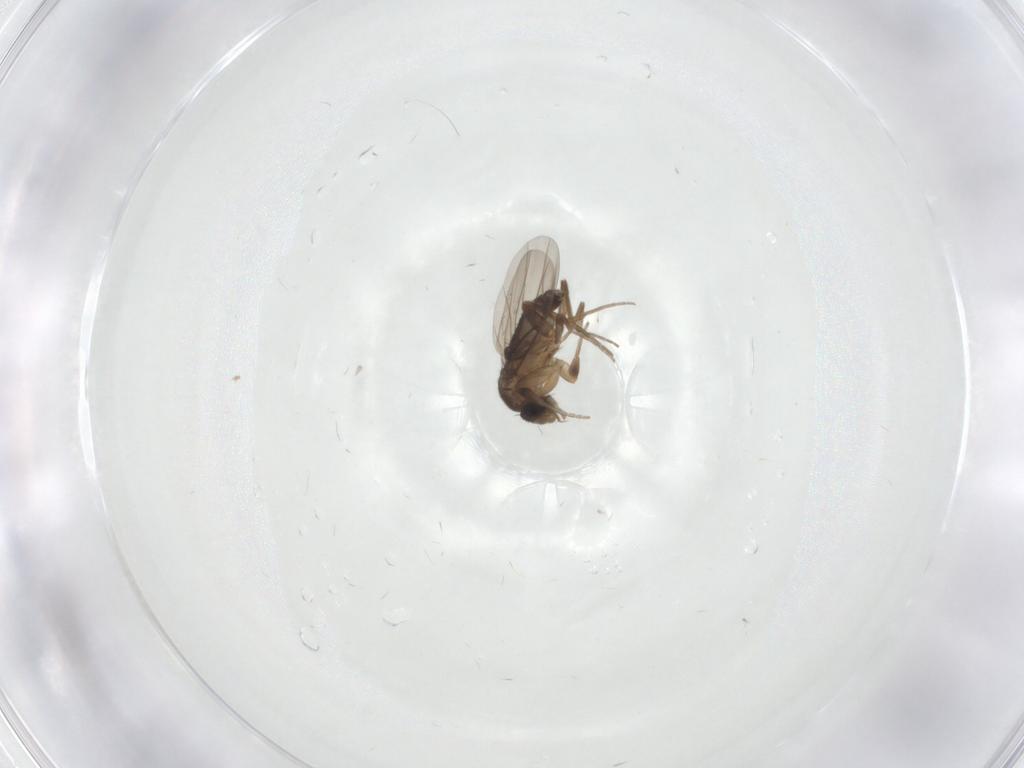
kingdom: Animalia
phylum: Arthropoda
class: Insecta
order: Diptera
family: Phoridae
